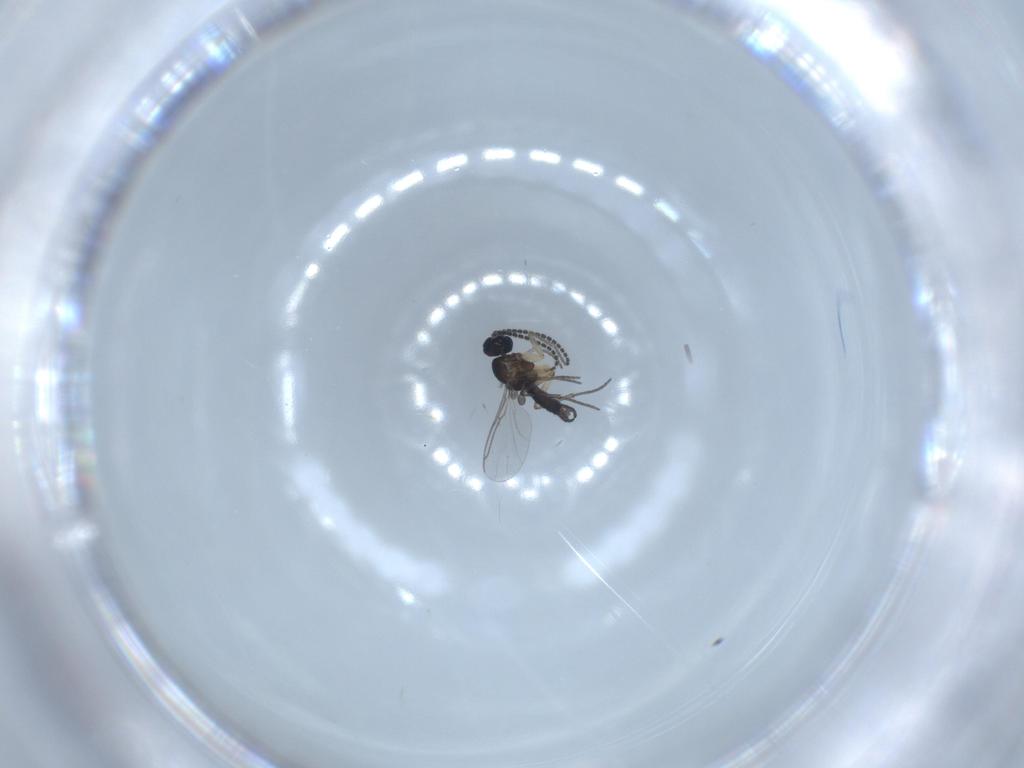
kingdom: Animalia
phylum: Arthropoda
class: Insecta
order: Diptera
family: Sciaridae
